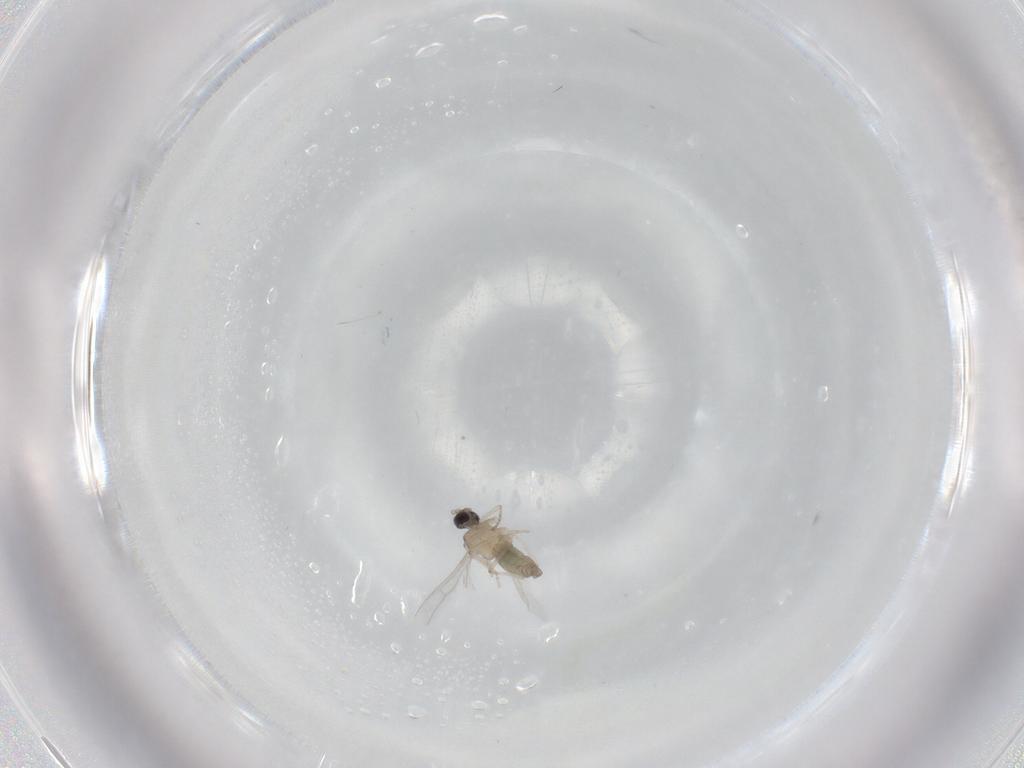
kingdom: Animalia
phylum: Arthropoda
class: Insecta
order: Diptera
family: Cecidomyiidae
